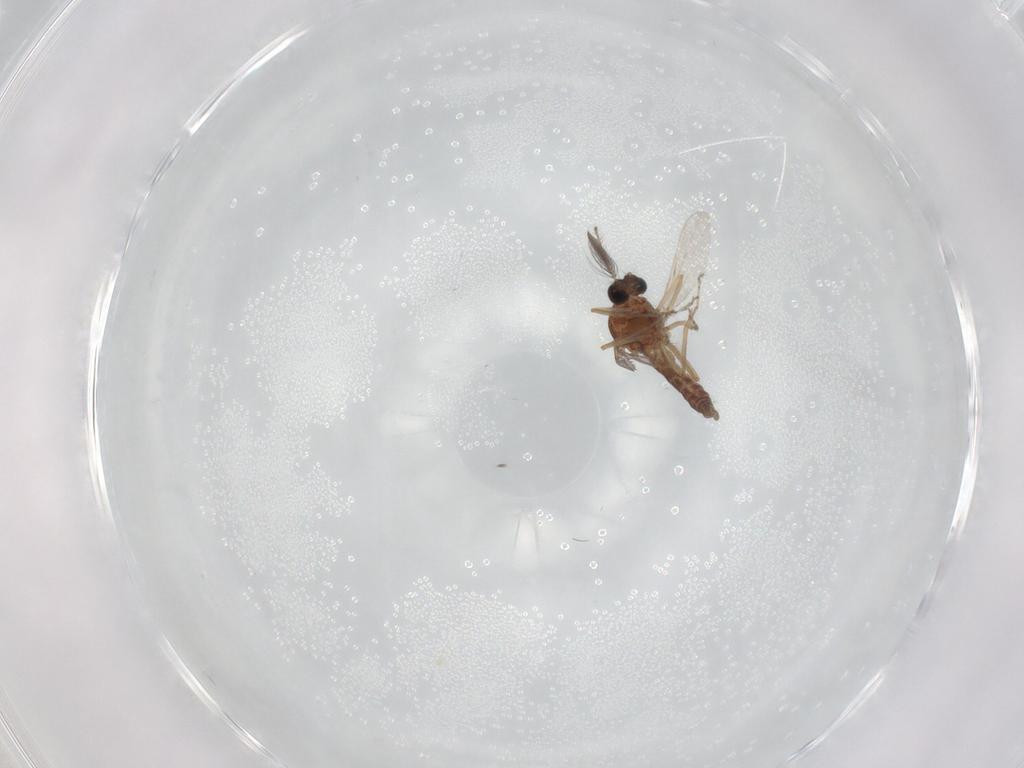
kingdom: Animalia
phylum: Arthropoda
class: Insecta
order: Diptera
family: Ceratopogonidae
